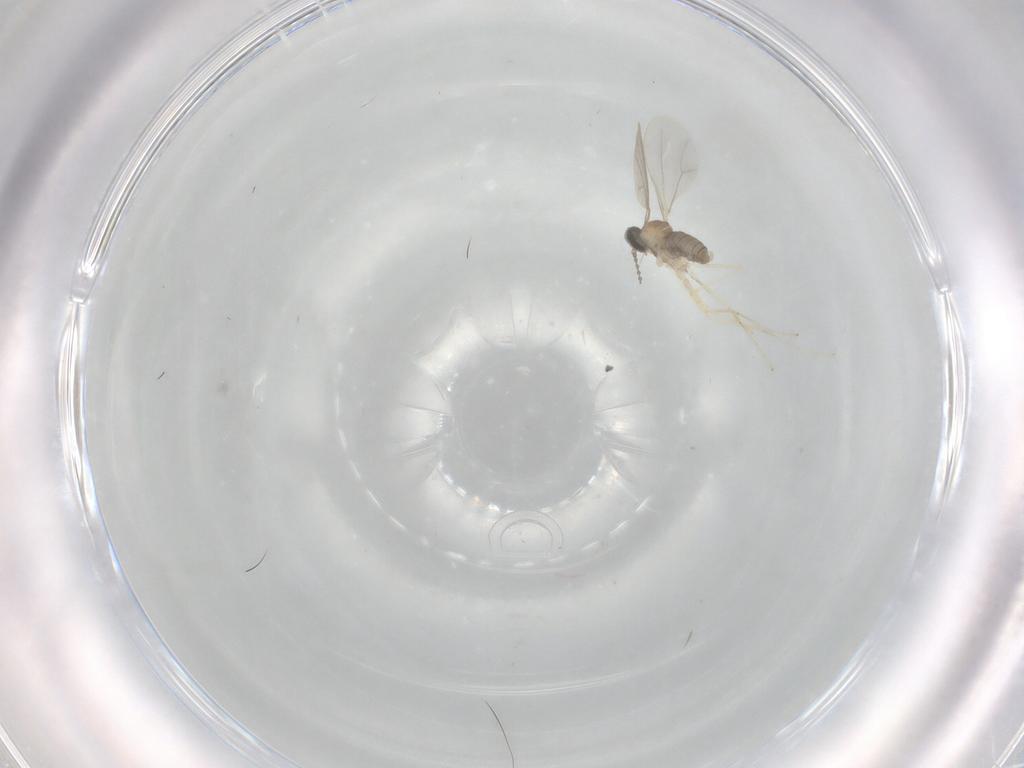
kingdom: Animalia
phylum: Arthropoda
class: Insecta
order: Diptera
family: Cecidomyiidae
